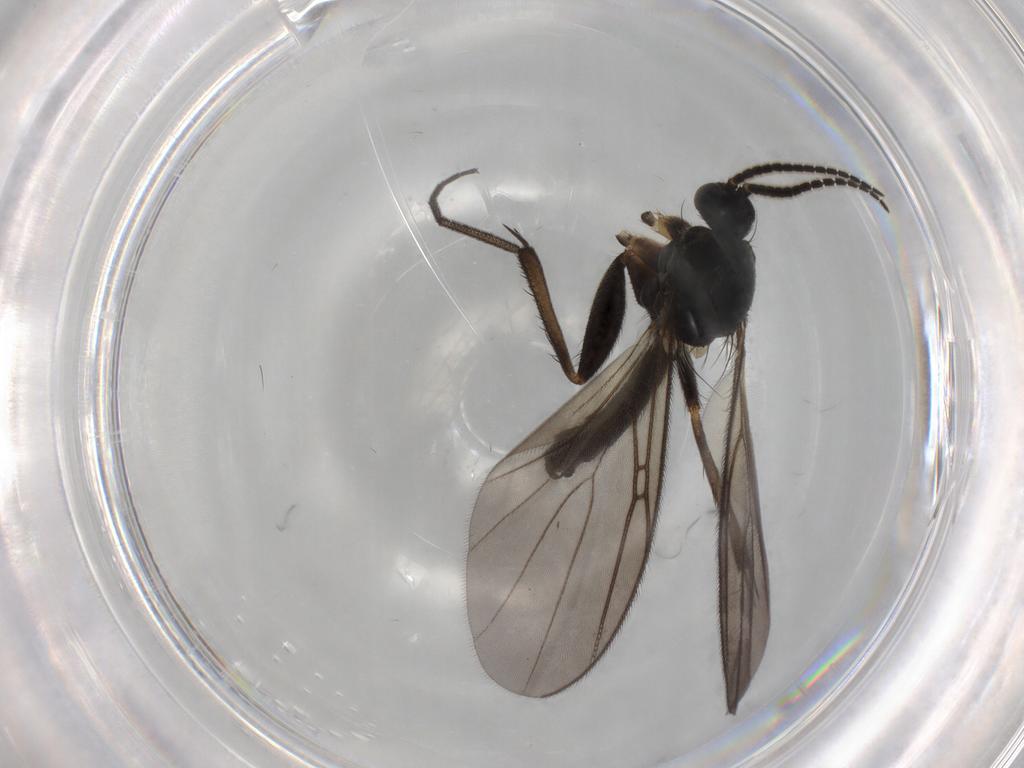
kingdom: Animalia
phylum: Arthropoda
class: Insecta
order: Diptera
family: Mycetophilidae
